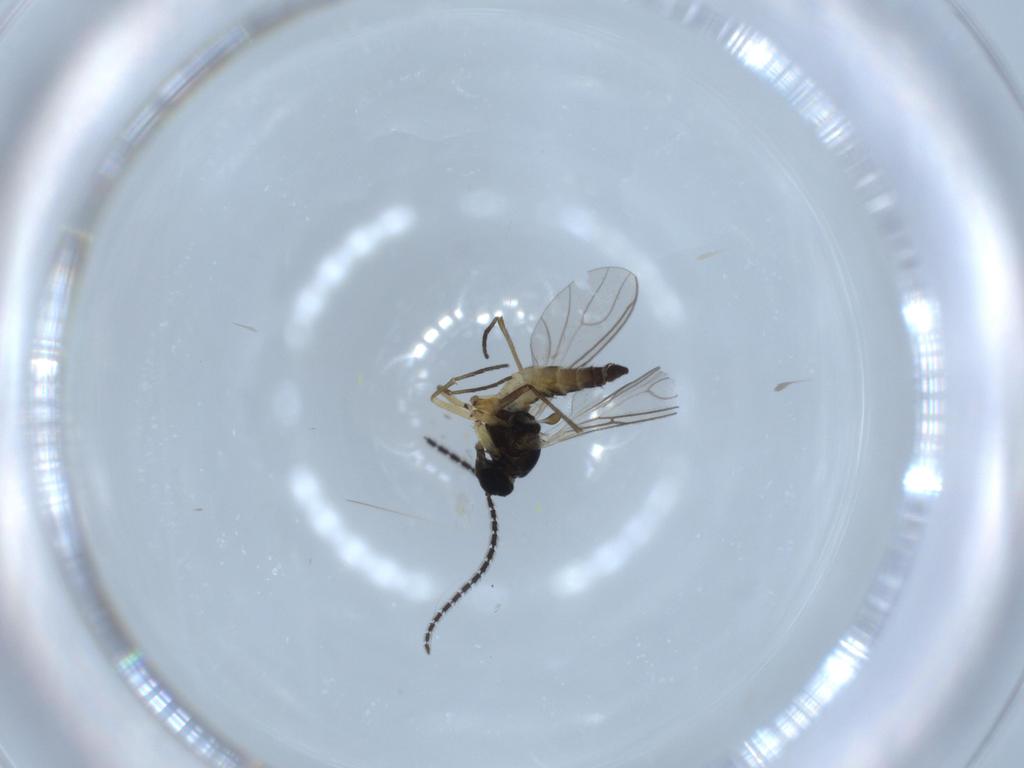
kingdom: Animalia
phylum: Arthropoda
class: Insecta
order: Diptera
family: Sciaridae
